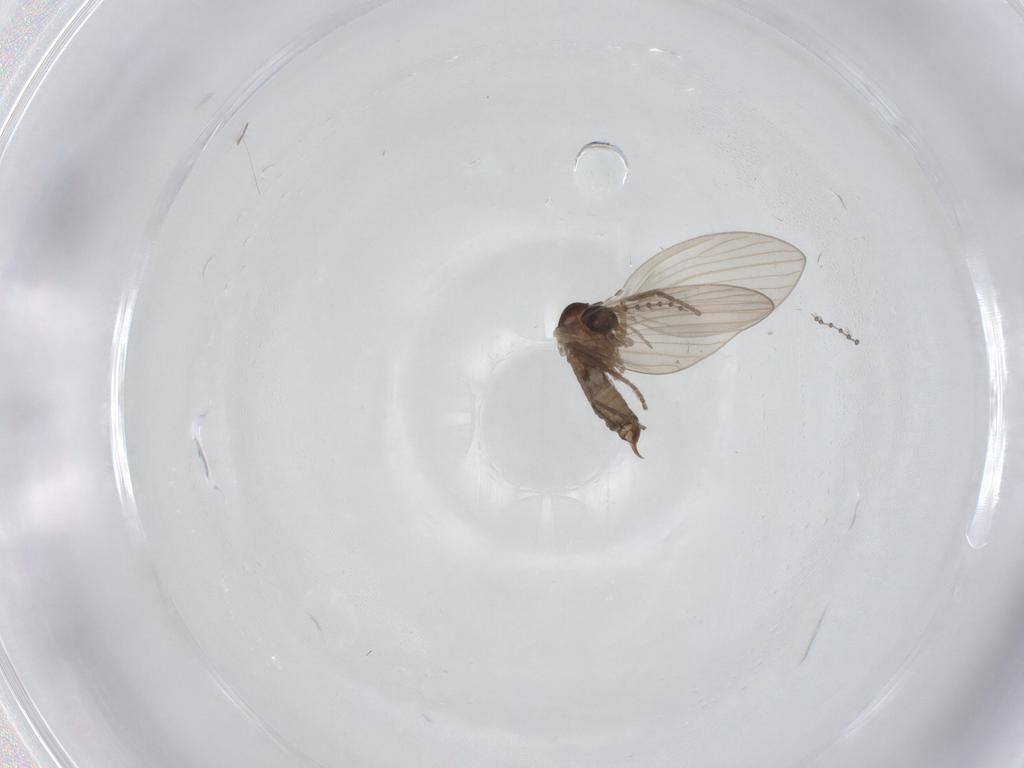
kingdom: Animalia
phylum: Arthropoda
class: Insecta
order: Diptera
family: Psychodidae
